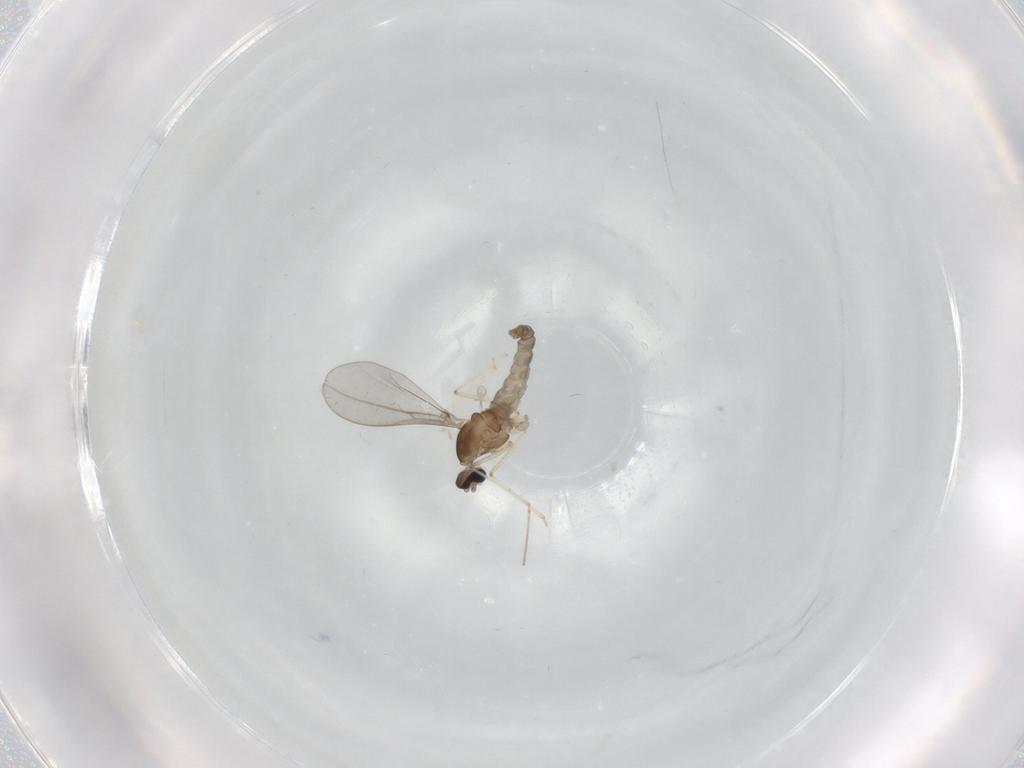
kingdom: Animalia
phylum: Arthropoda
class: Insecta
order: Diptera
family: Cecidomyiidae
